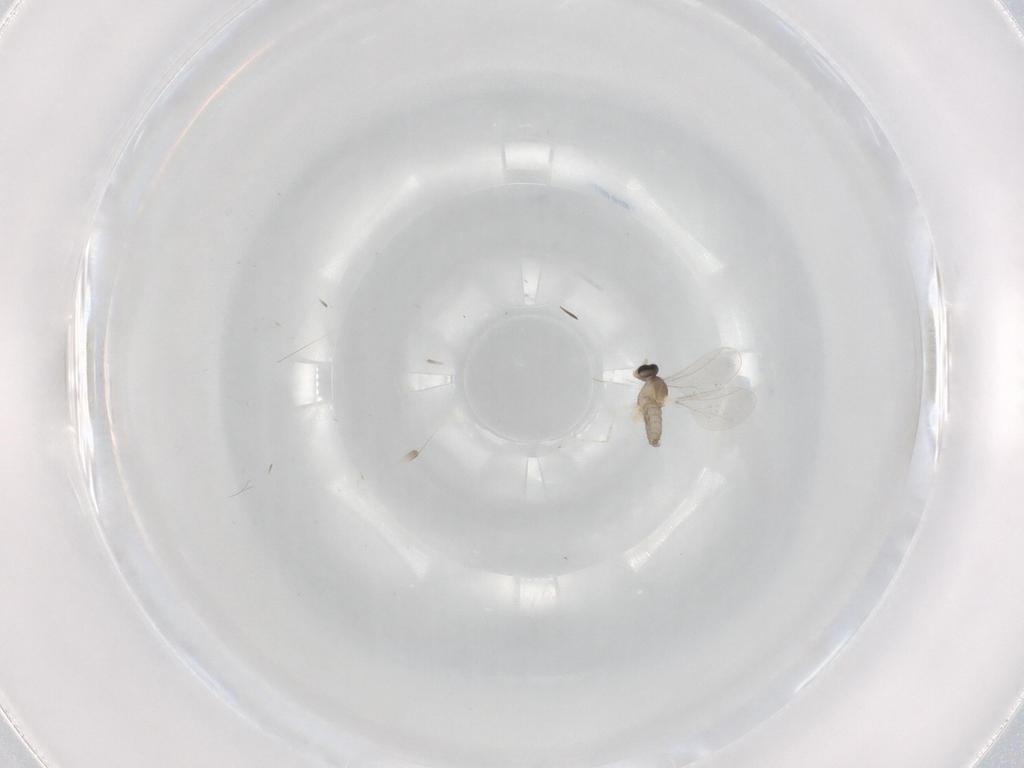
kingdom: Animalia
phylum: Arthropoda
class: Insecta
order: Diptera
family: Cecidomyiidae
